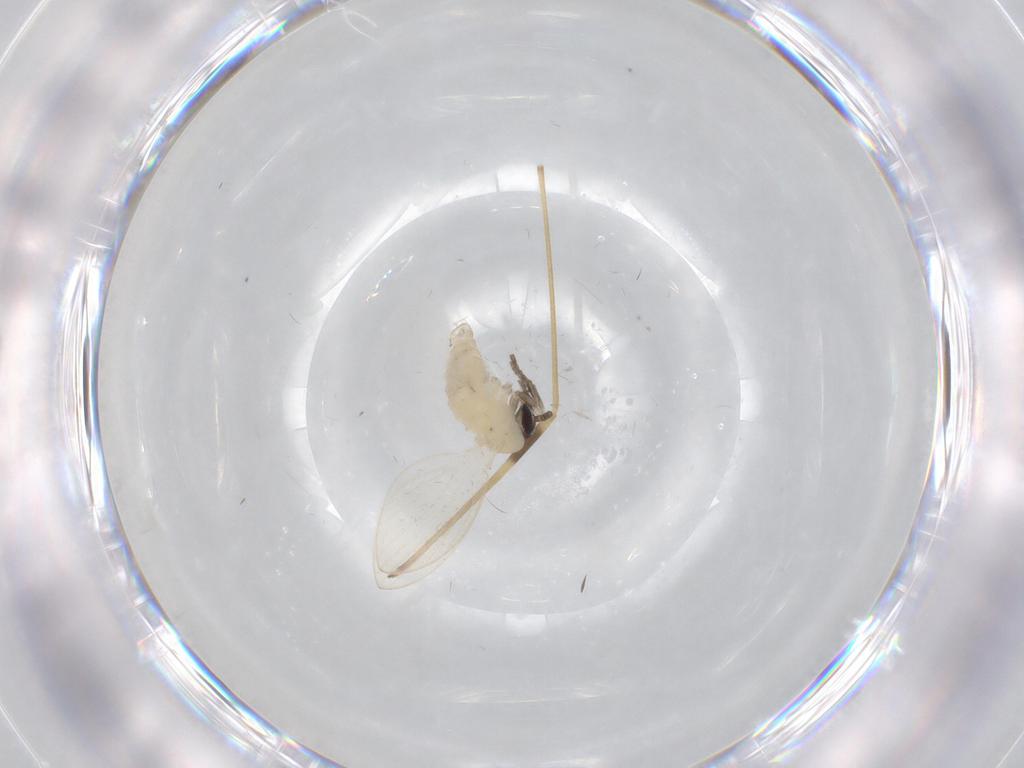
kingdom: Animalia
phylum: Arthropoda
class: Insecta
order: Diptera
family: Psychodidae
